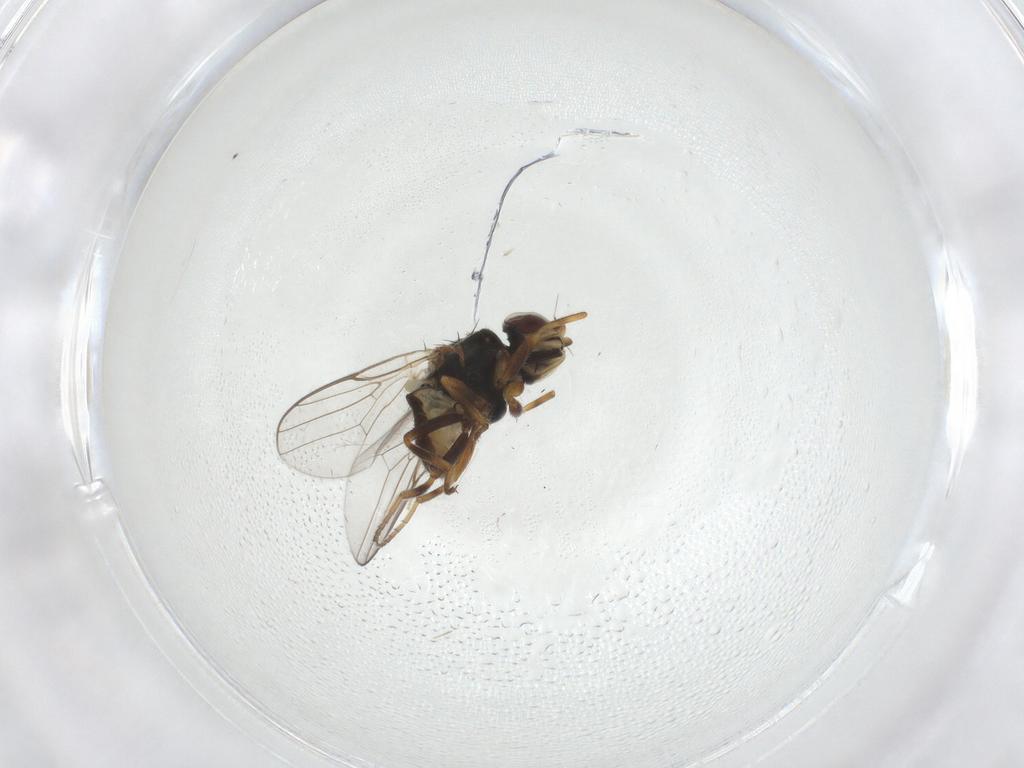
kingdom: Animalia
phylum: Arthropoda
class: Insecta
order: Diptera
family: Chloropidae
